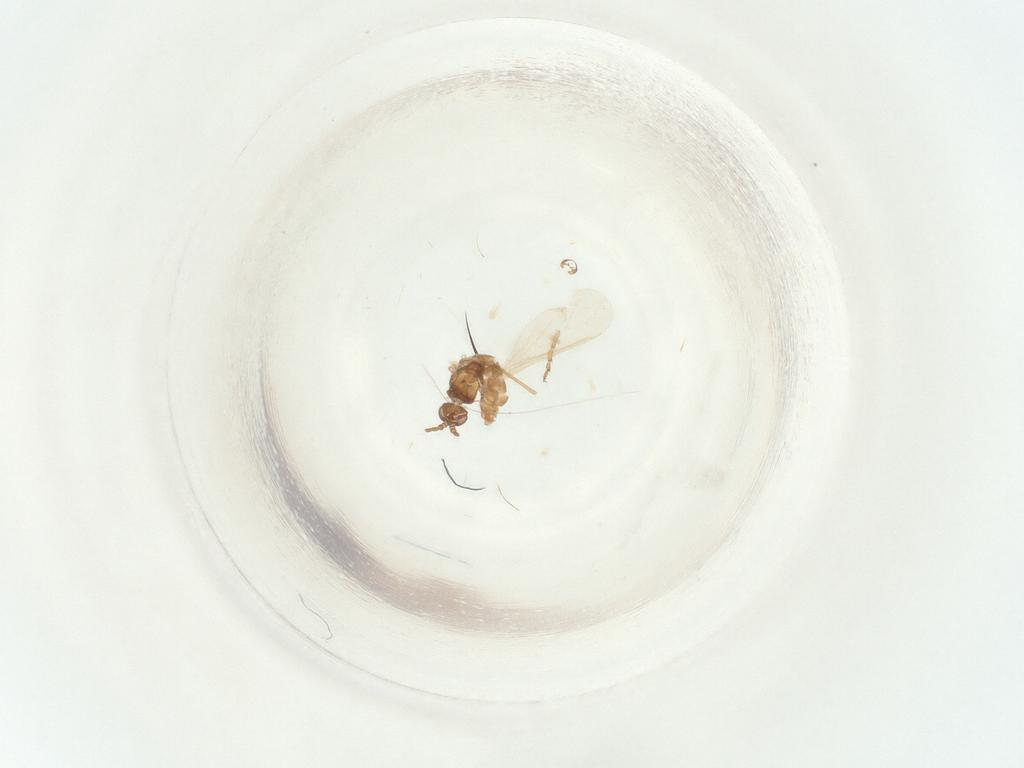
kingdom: Animalia
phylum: Arthropoda
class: Insecta
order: Diptera
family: Sciaridae
